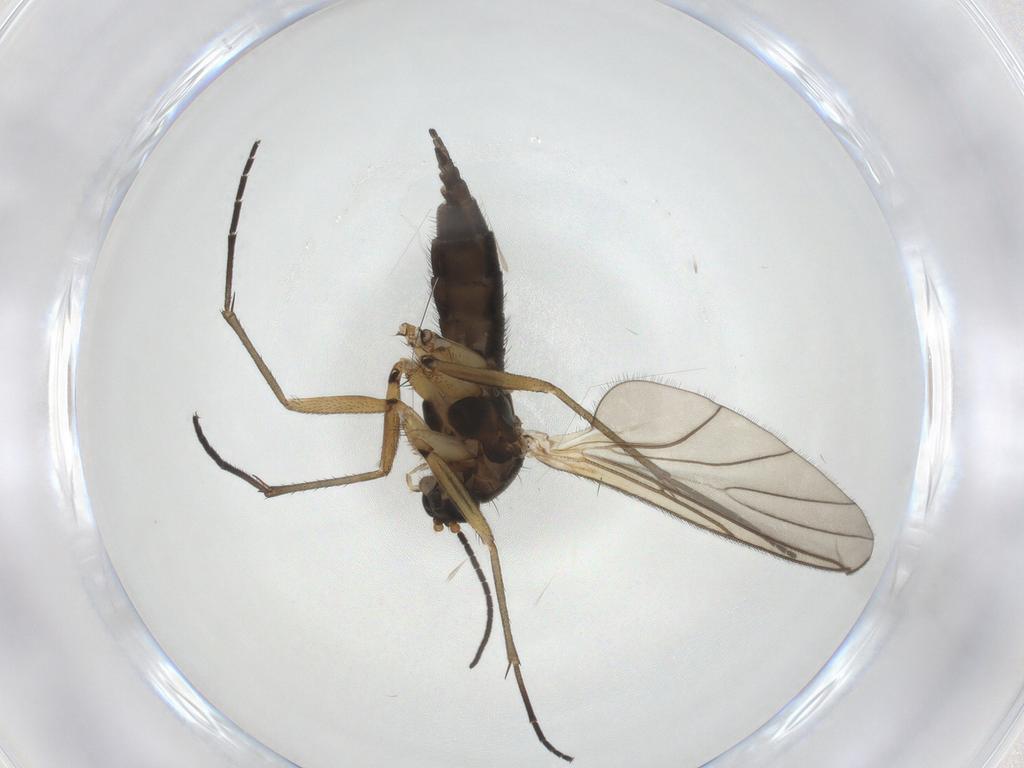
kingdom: Animalia
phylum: Arthropoda
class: Insecta
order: Diptera
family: Sciaridae
